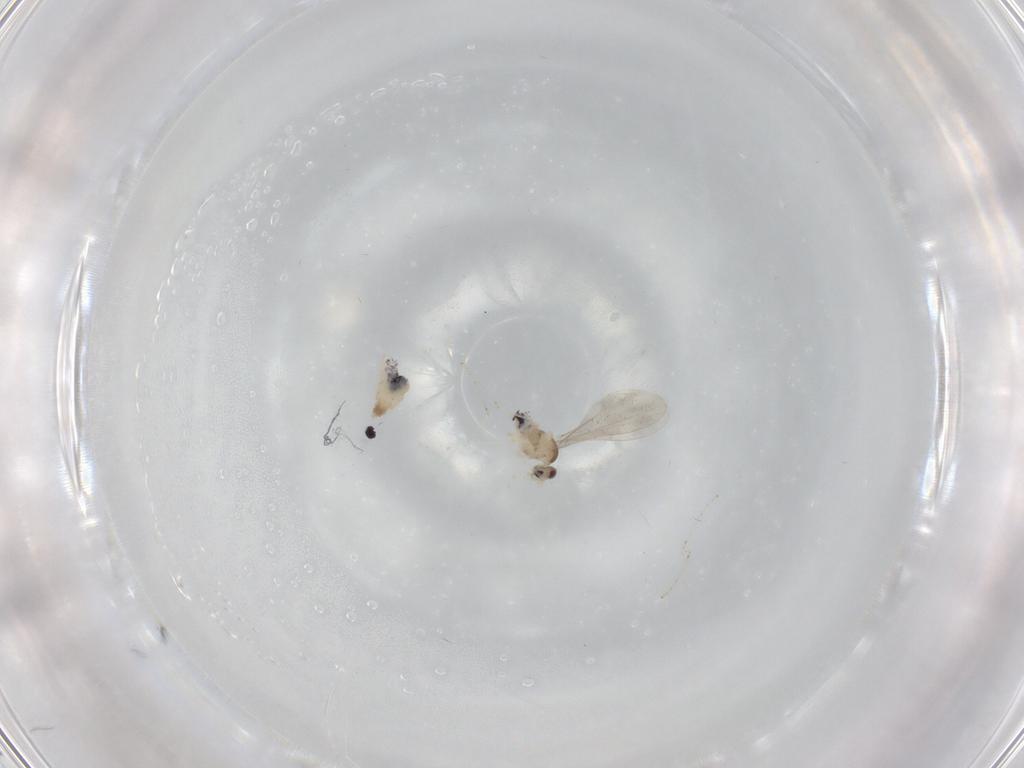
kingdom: Animalia
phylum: Arthropoda
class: Insecta
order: Diptera
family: Cecidomyiidae
